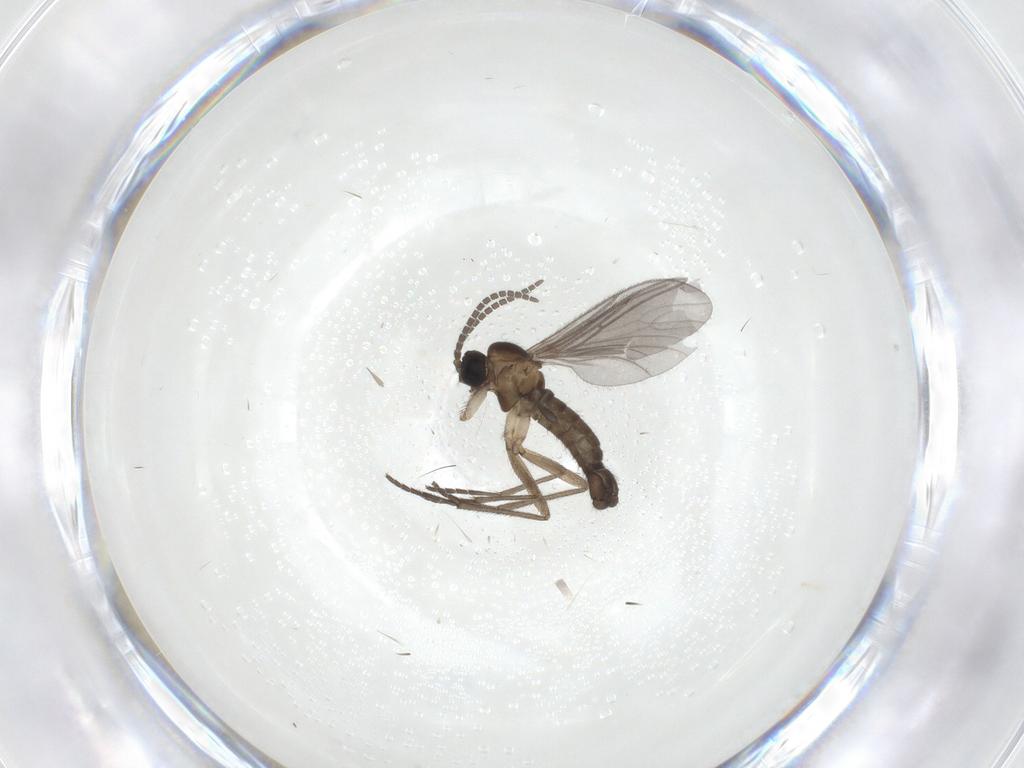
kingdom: Animalia
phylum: Arthropoda
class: Insecta
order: Diptera
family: Sciaridae
